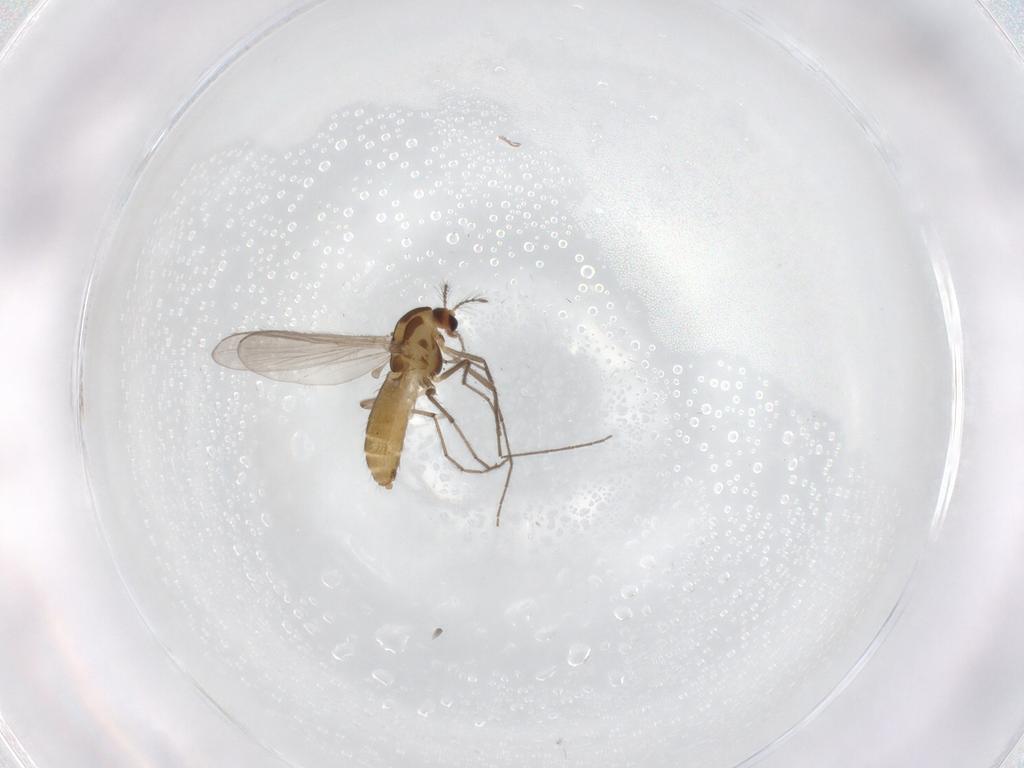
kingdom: Animalia
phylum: Arthropoda
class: Insecta
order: Diptera
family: Chironomidae
